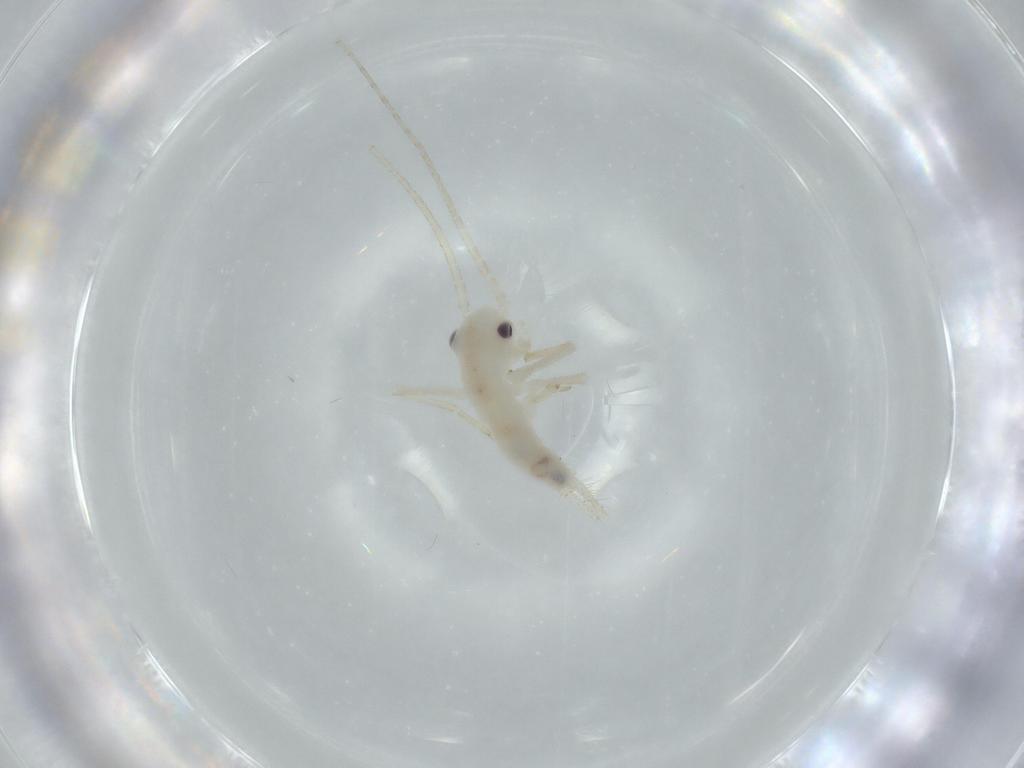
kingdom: Animalia
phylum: Arthropoda
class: Insecta
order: Orthoptera
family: Trigonidiidae
